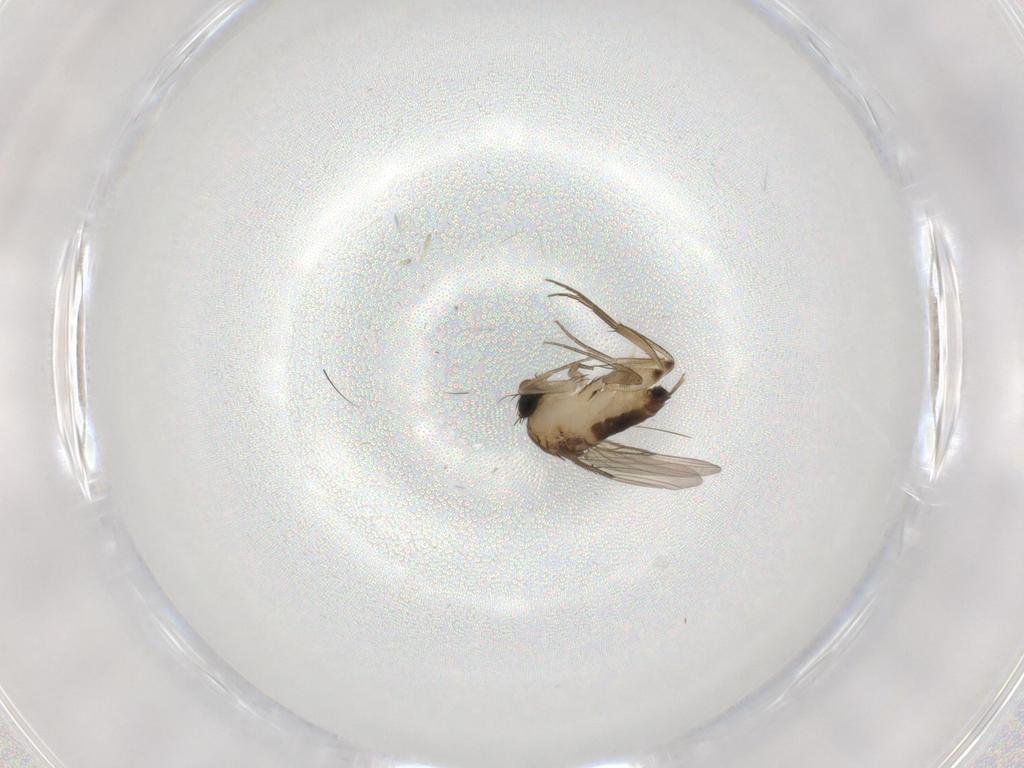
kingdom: Animalia
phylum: Arthropoda
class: Insecta
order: Diptera
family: Phoridae
